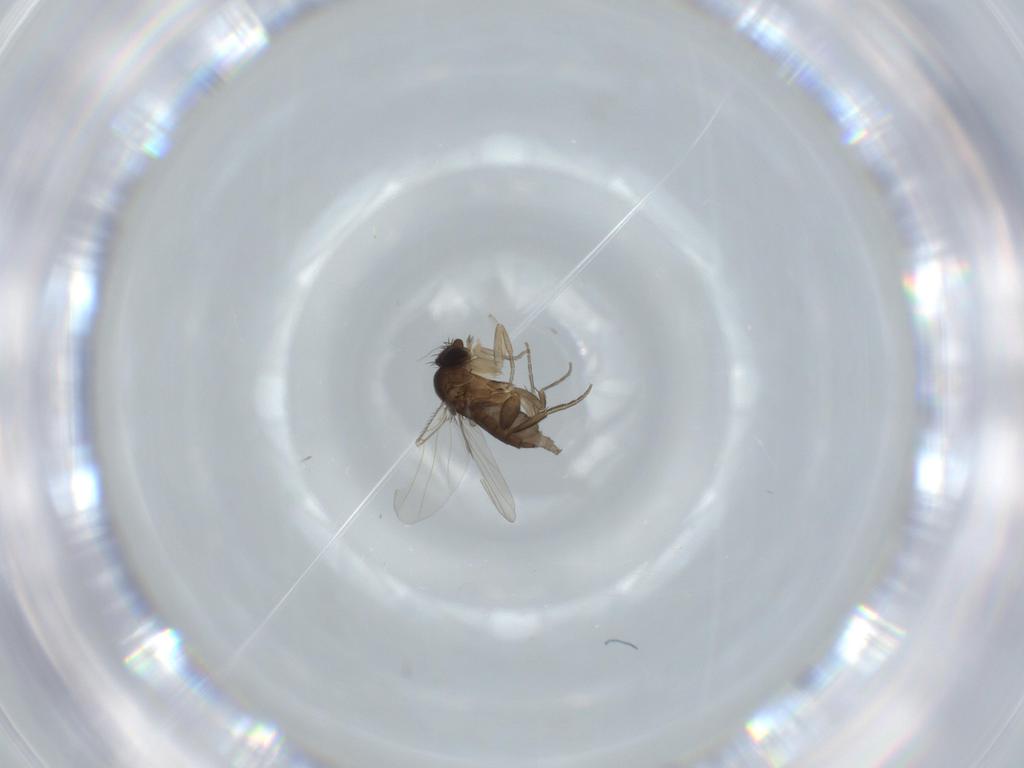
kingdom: Animalia
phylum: Arthropoda
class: Insecta
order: Diptera
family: Phoridae
